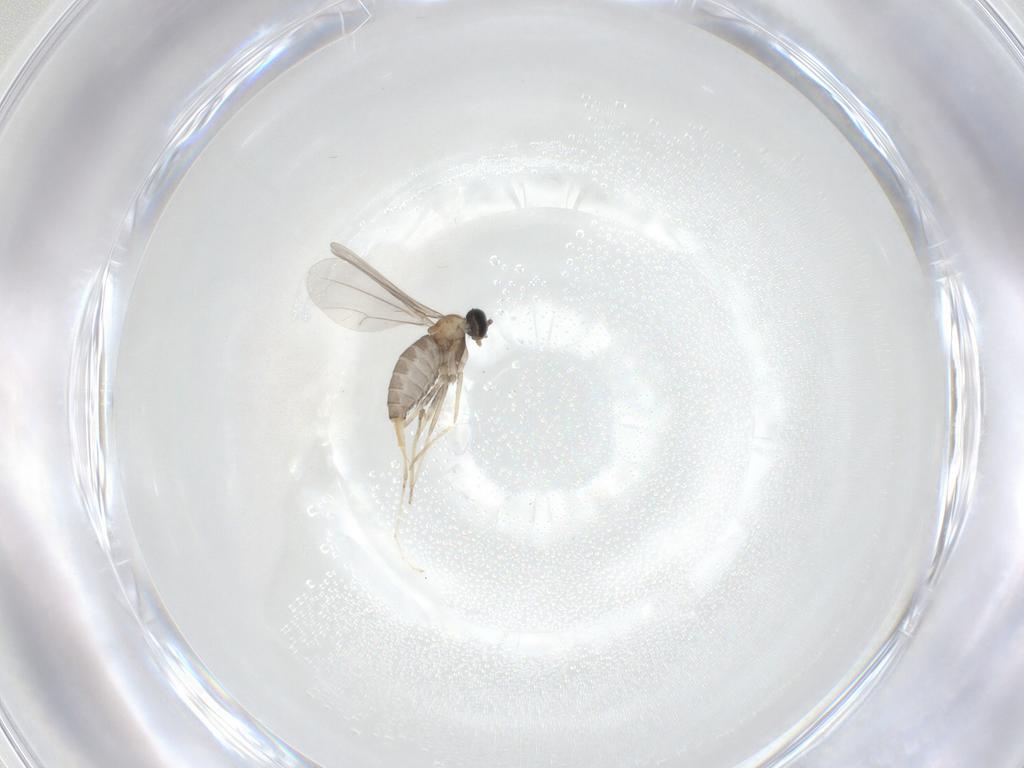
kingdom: Animalia
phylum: Arthropoda
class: Insecta
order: Diptera
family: Cecidomyiidae
